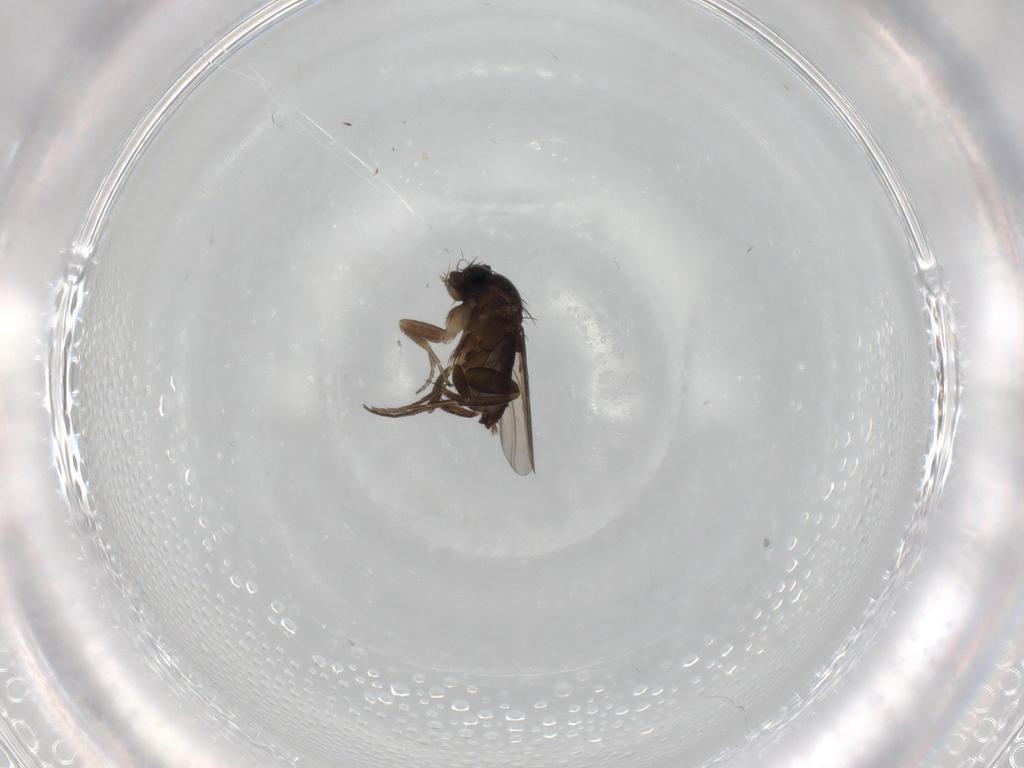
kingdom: Animalia
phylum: Arthropoda
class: Insecta
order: Diptera
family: Phoridae
